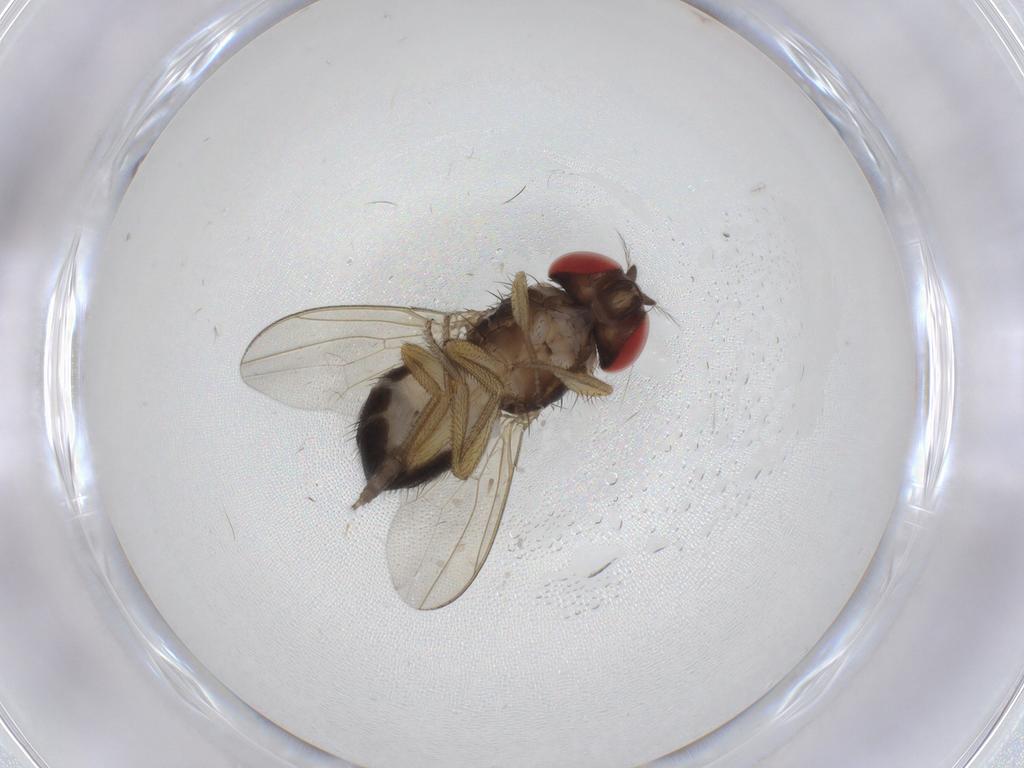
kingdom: Animalia
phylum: Arthropoda
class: Insecta
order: Diptera
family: Drosophilidae
